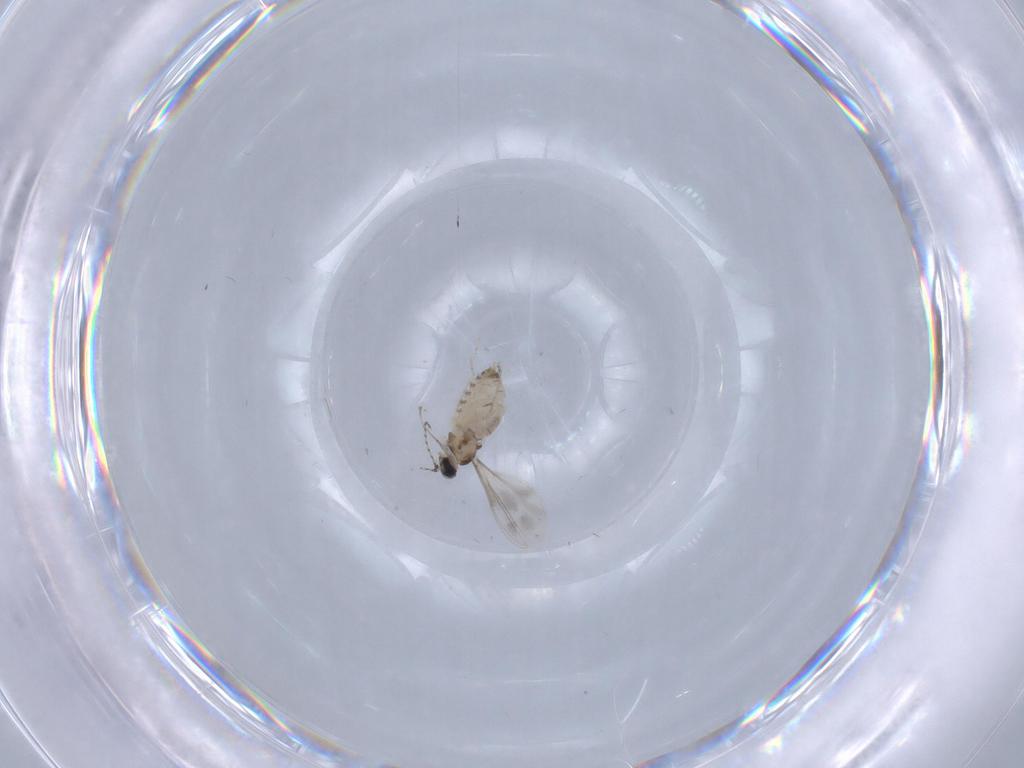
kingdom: Animalia
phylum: Arthropoda
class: Insecta
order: Diptera
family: Cecidomyiidae
